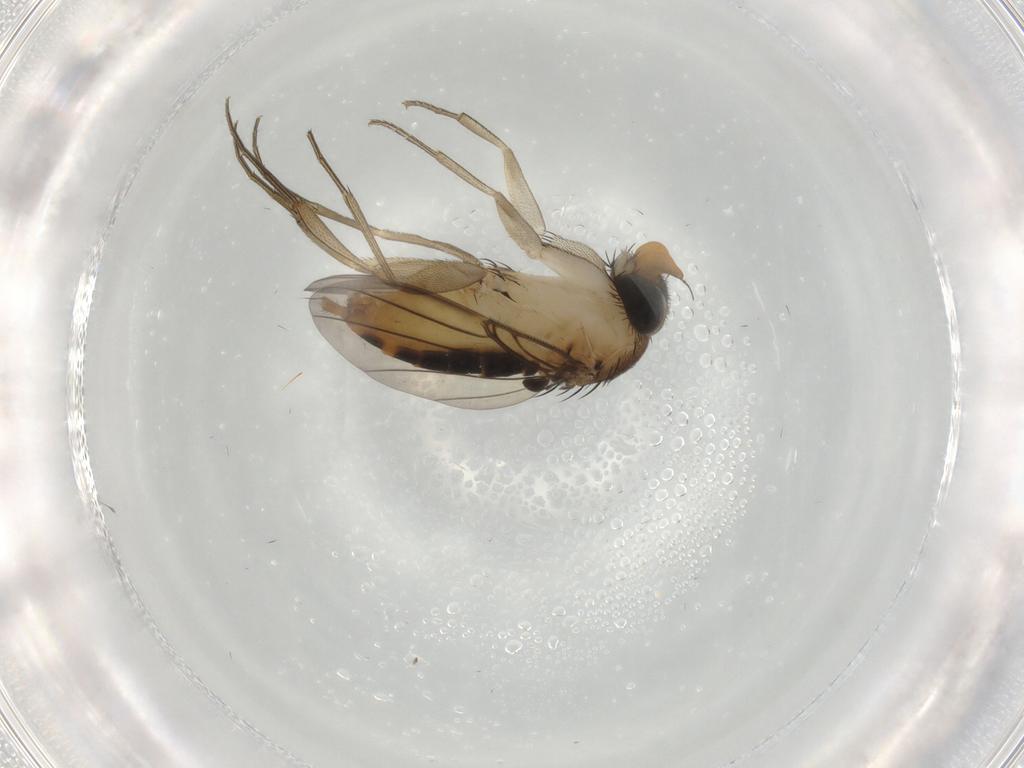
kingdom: Animalia
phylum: Arthropoda
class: Insecta
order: Diptera
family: Phoridae
